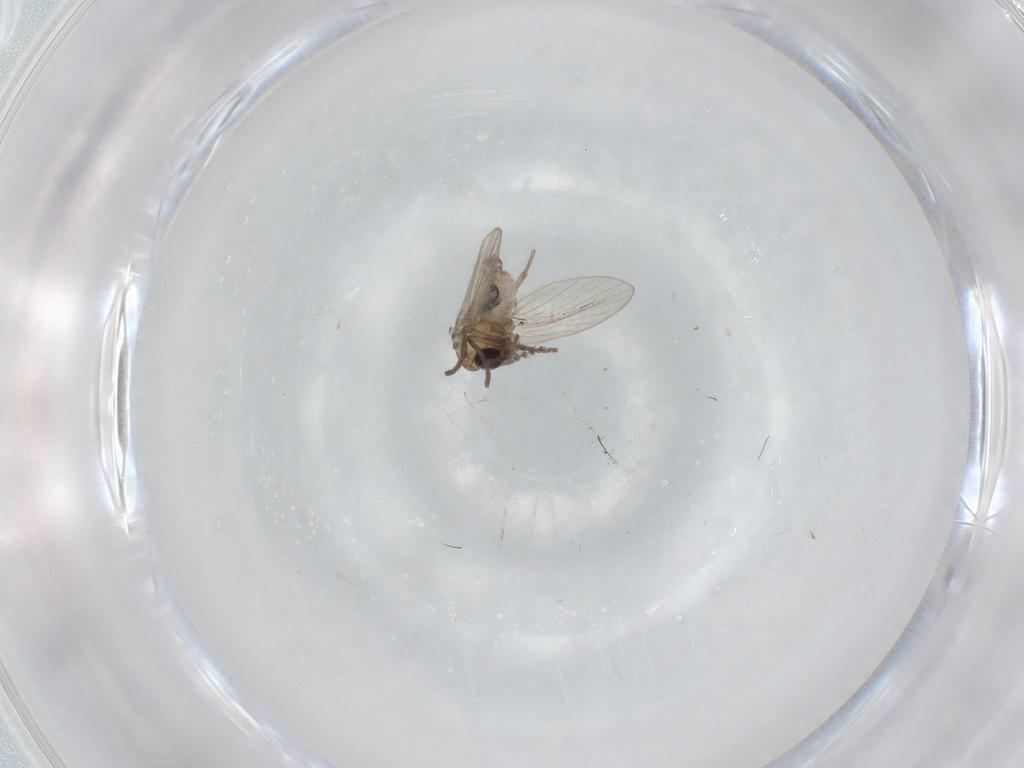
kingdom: Animalia
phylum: Arthropoda
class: Insecta
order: Diptera
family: Psychodidae
